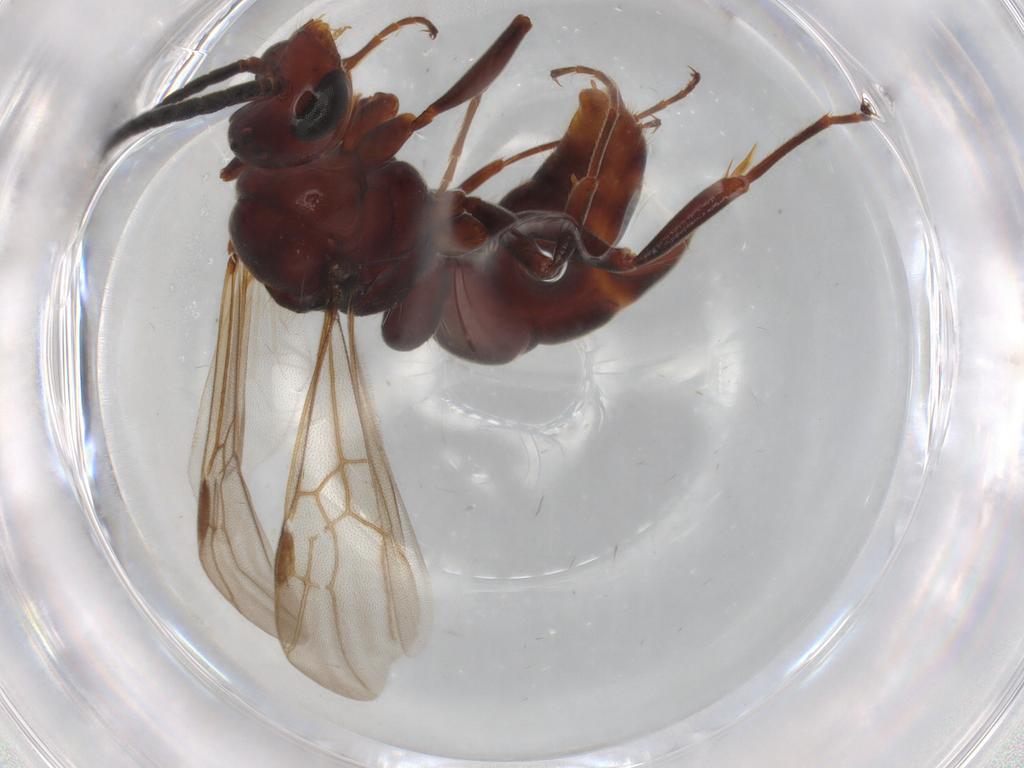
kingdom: Animalia
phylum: Arthropoda
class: Insecta
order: Hymenoptera
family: Formicidae
